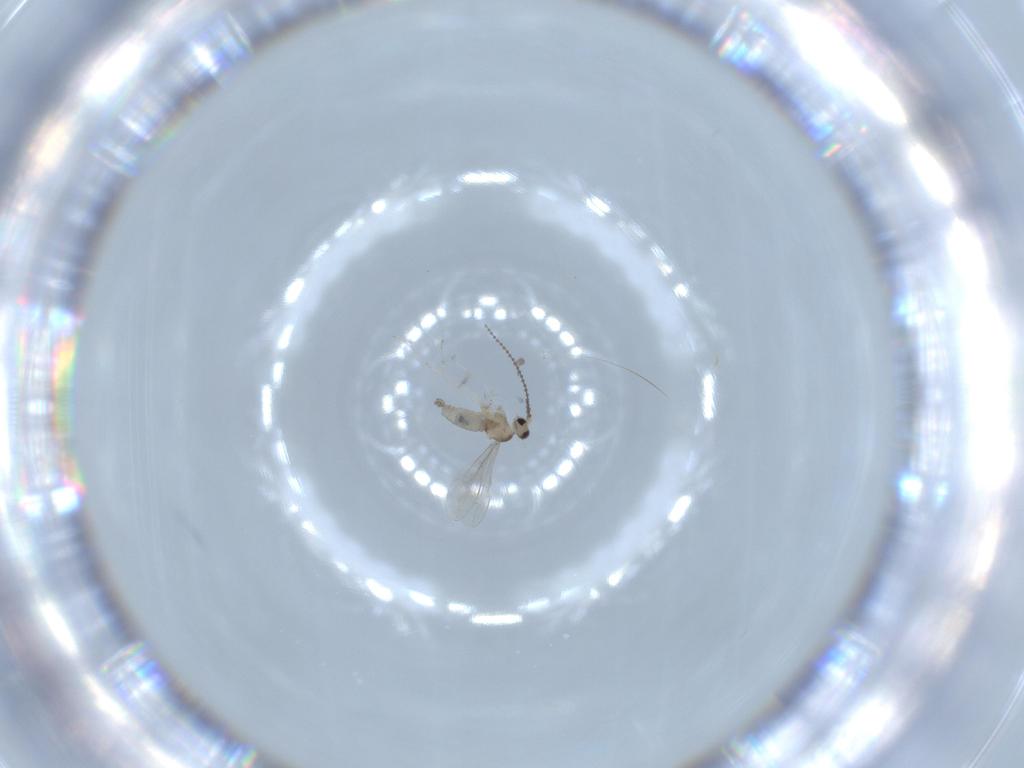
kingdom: Animalia
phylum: Arthropoda
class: Insecta
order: Diptera
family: Cecidomyiidae
